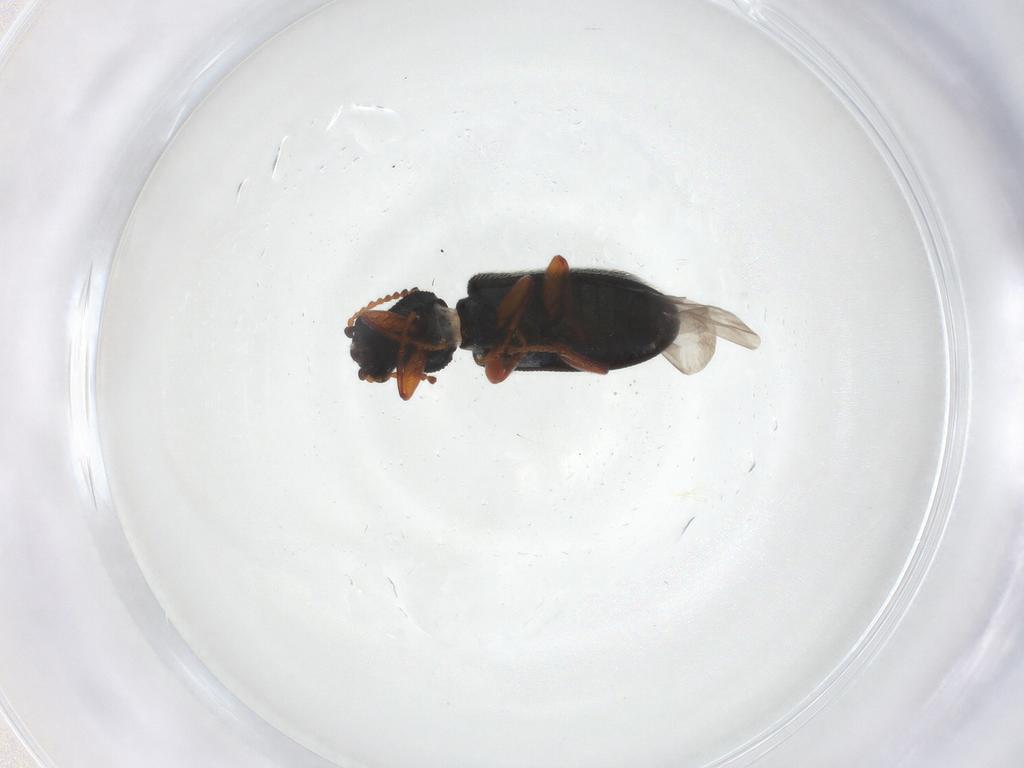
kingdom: Animalia
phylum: Arthropoda
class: Insecta
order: Coleoptera
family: Melyridae
